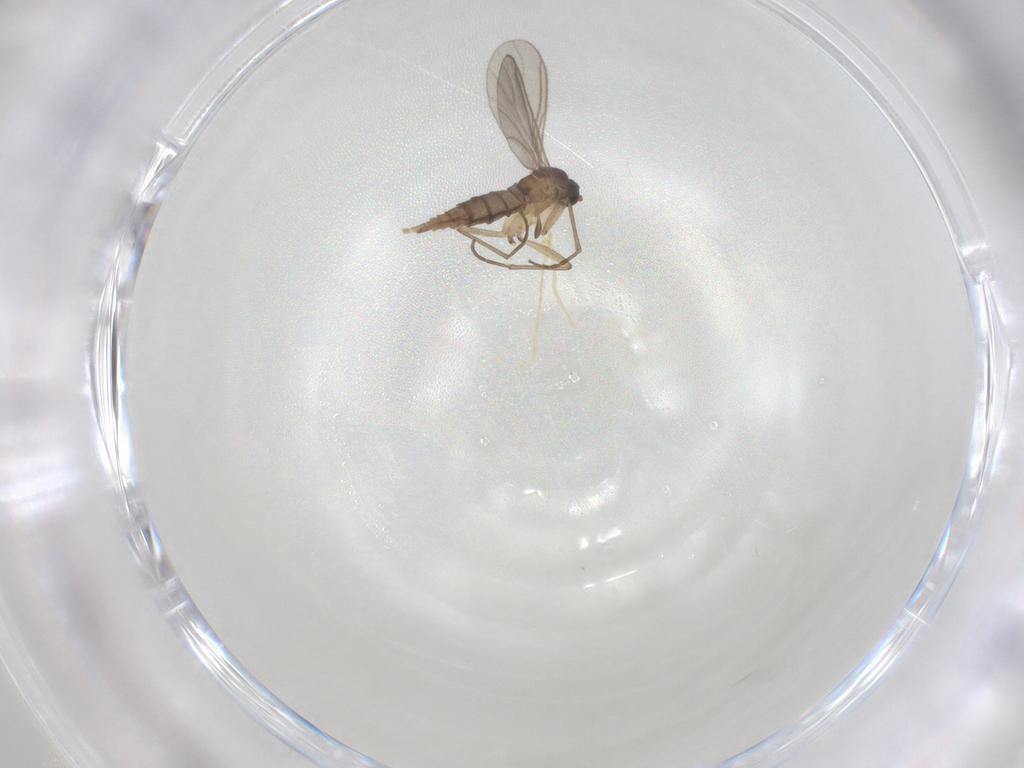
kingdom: Animalia
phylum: Arthropoda
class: Insecta
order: Diptera
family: Sciaridae
